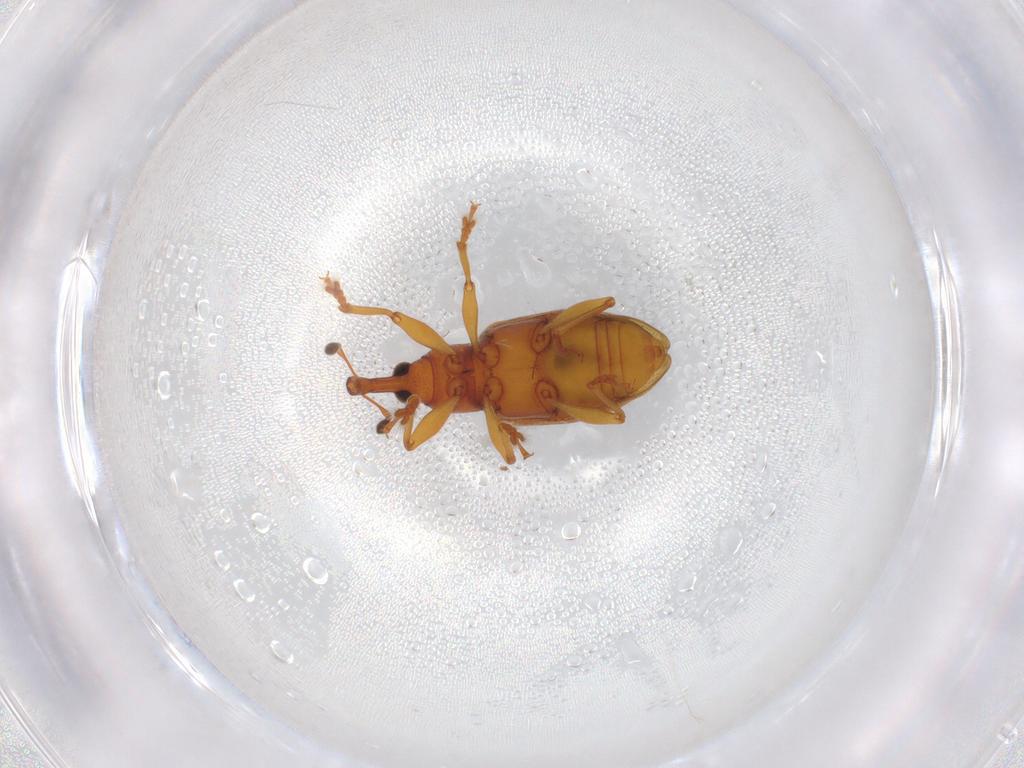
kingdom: Animalia
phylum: Arthropoda
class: Insecta
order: Coleoptera
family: Curculionidae
